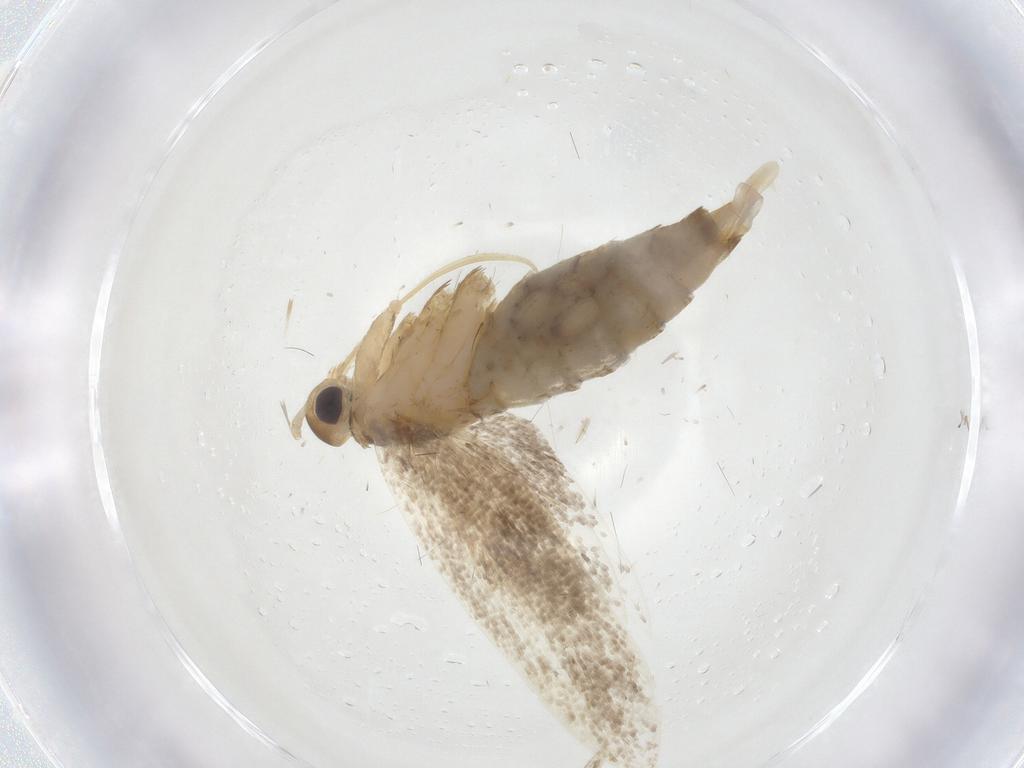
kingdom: Animalia
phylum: Arthropoda
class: Insecta
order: Lepidoptera
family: Lecithoceridae
